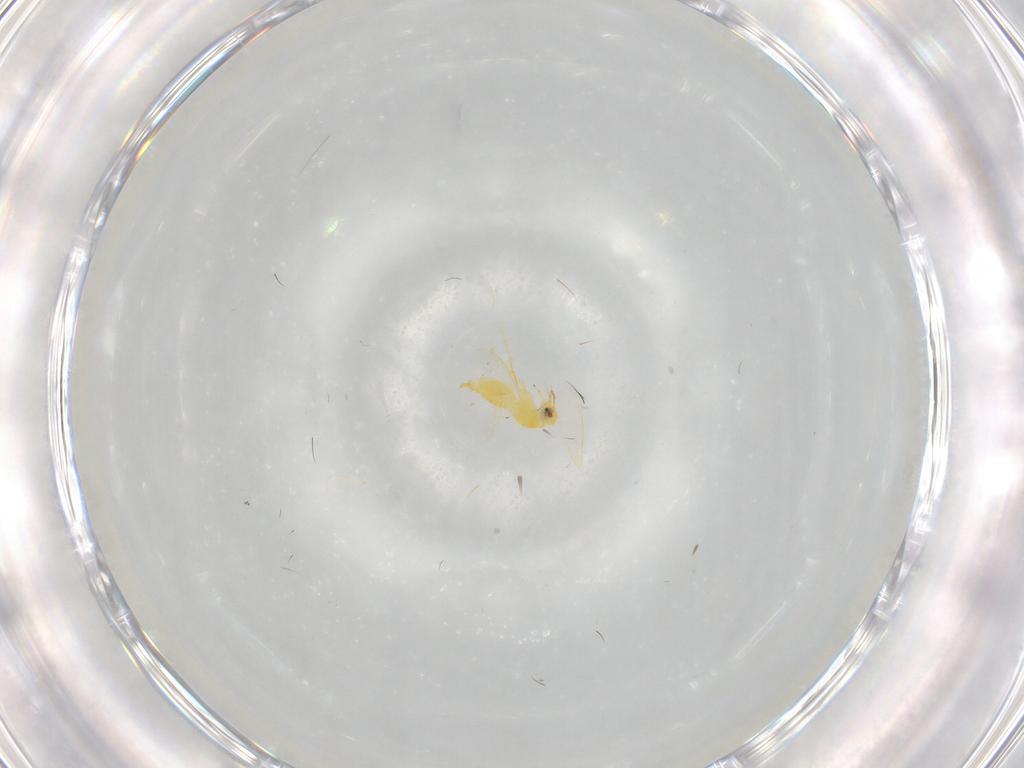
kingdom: Animalia
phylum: Arthropoda
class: Insecta
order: Hemiptera
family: Aleyrodidae
